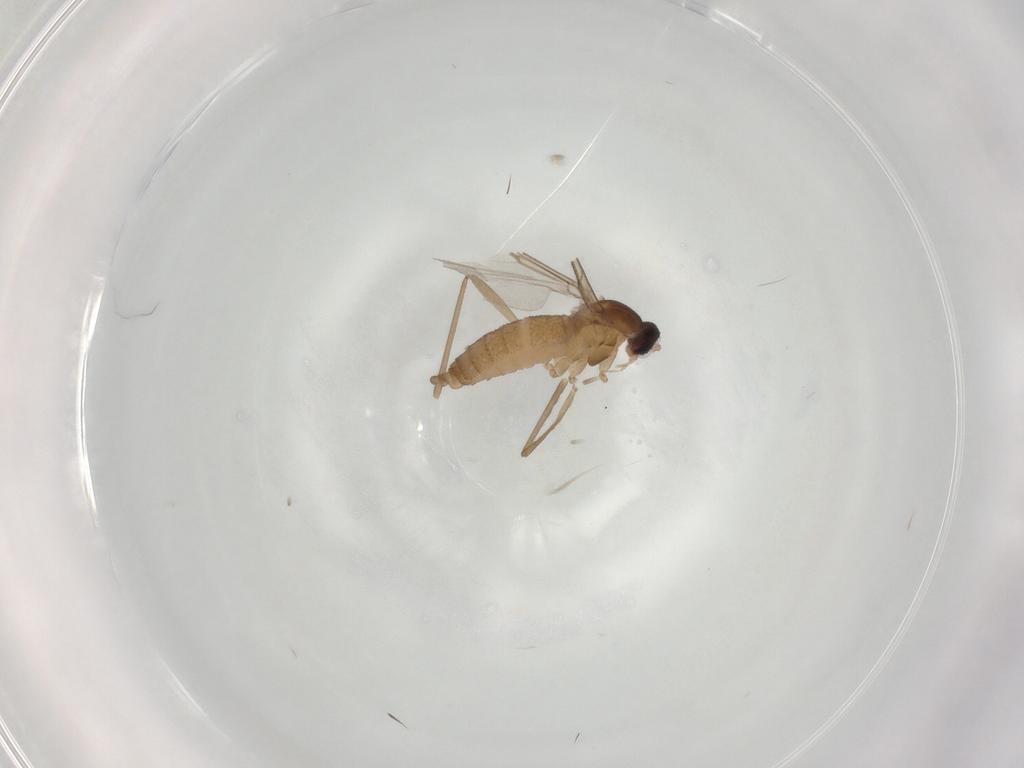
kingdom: Animalia
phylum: Arthropoda
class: Insecta
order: Diptera
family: Cecidomyiidae
